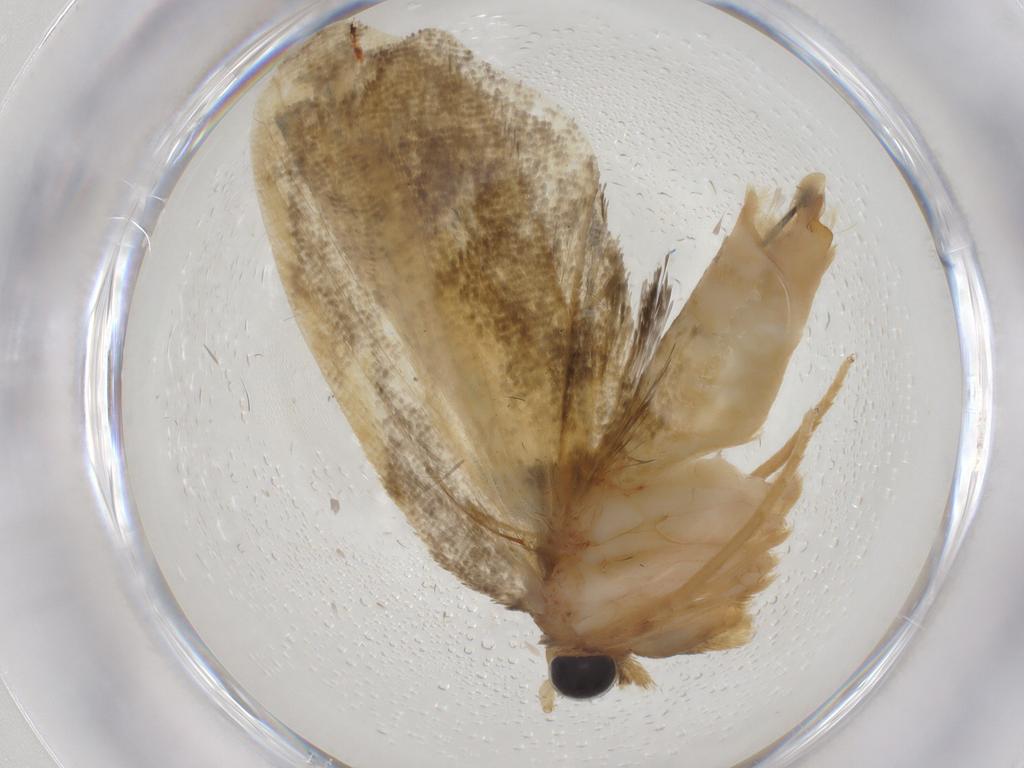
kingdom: Animalia
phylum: Arthropoda
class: Insecta
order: Lepidoptera
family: Psychidae
